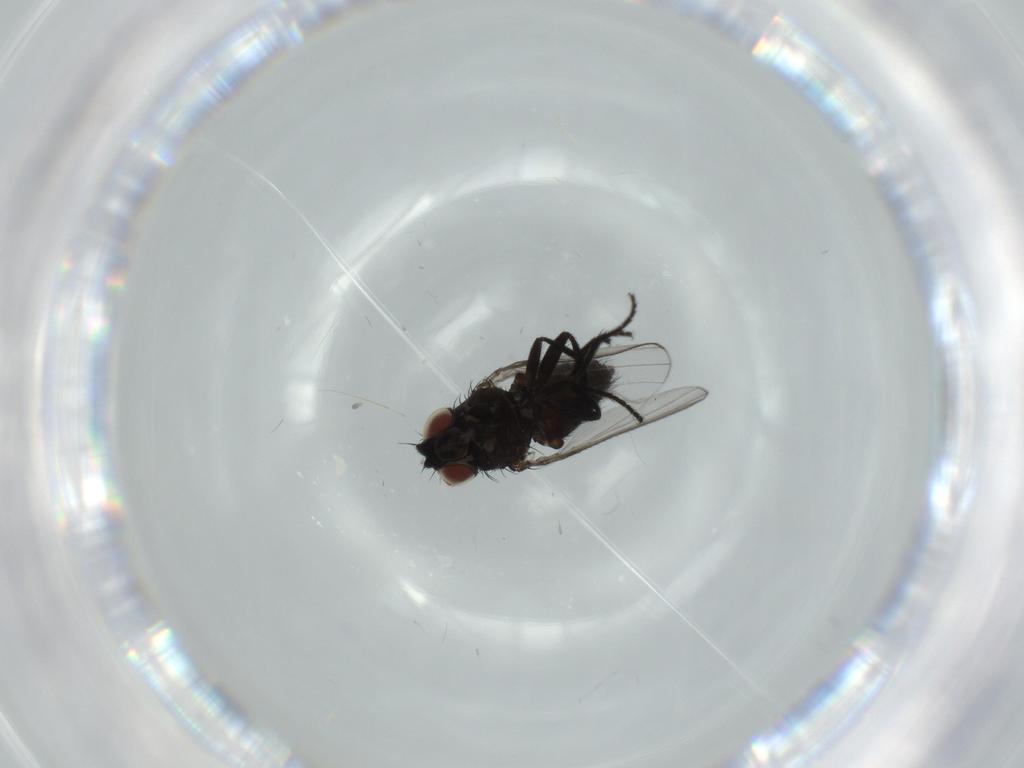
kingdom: Animalia
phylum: Arthropoda
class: Insecta
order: Diptera
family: Milichiidae
